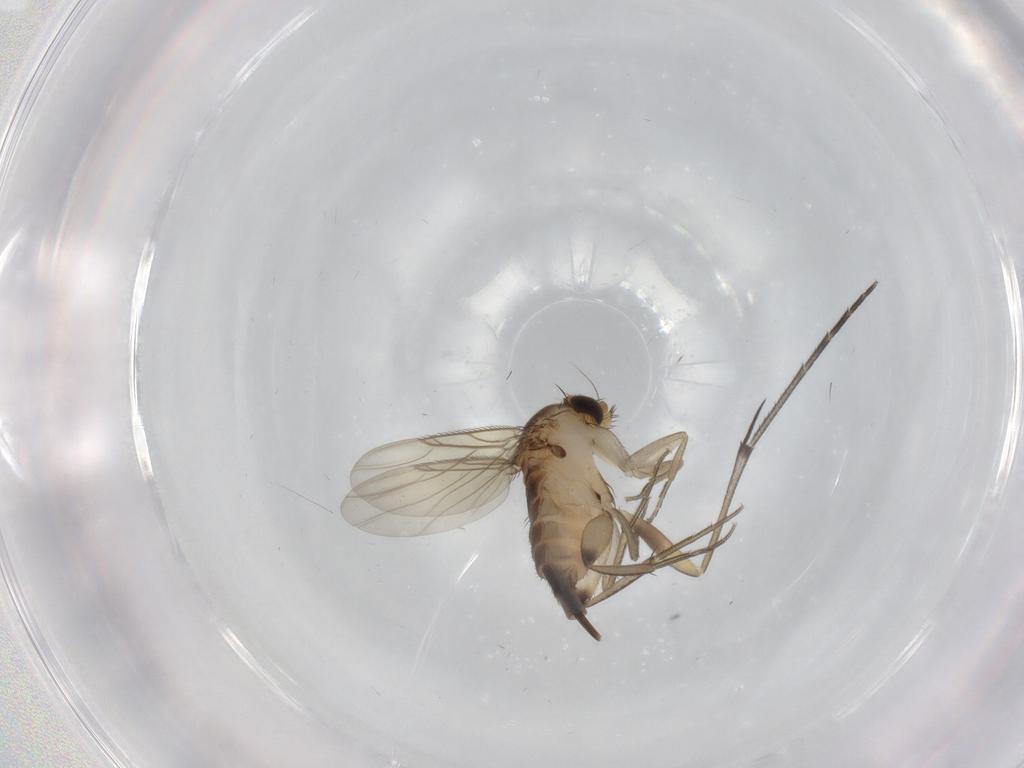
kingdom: Animalia
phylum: Arthropoda
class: Insecta
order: Diptera
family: Keroplatidae
